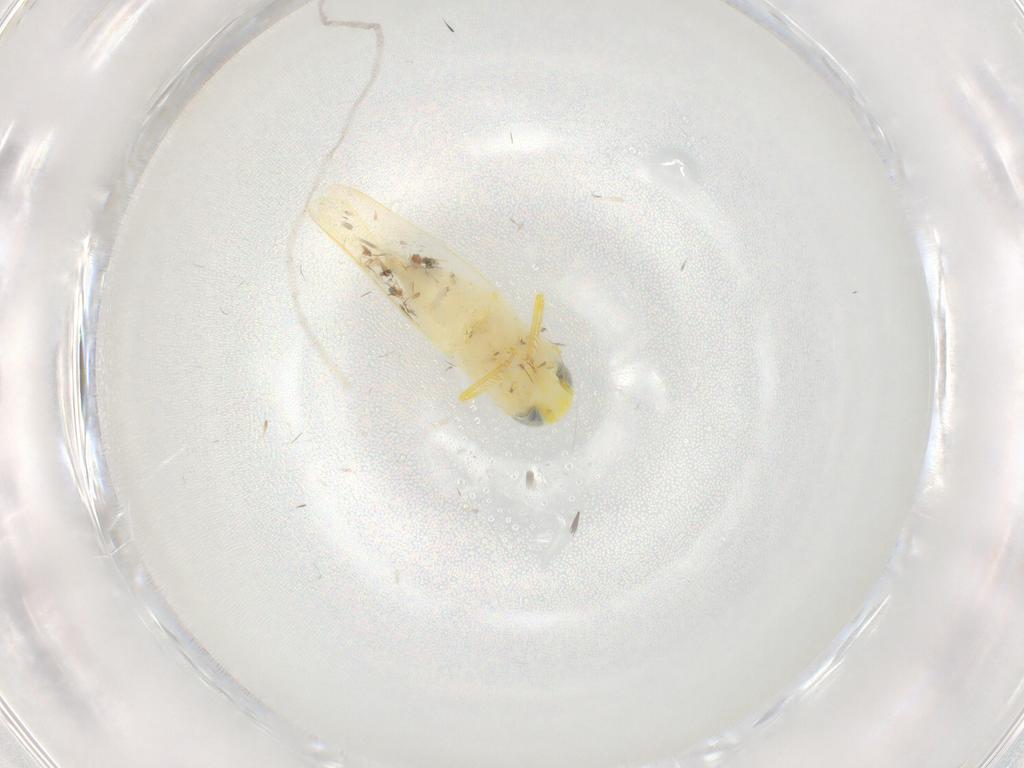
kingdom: Animalia
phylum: Arthropoda
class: Insecta
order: Hemiptera
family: Cicadellidae
